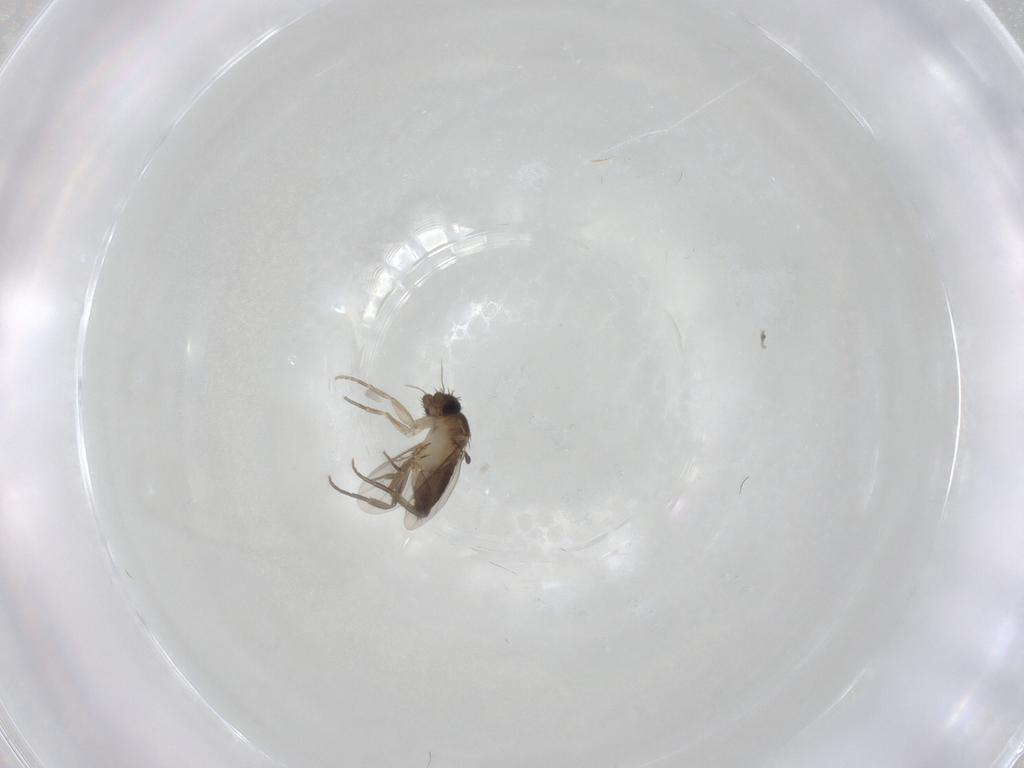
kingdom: Animalia
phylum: Arthropoda
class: Insecta
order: Diptera
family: Phoridae
